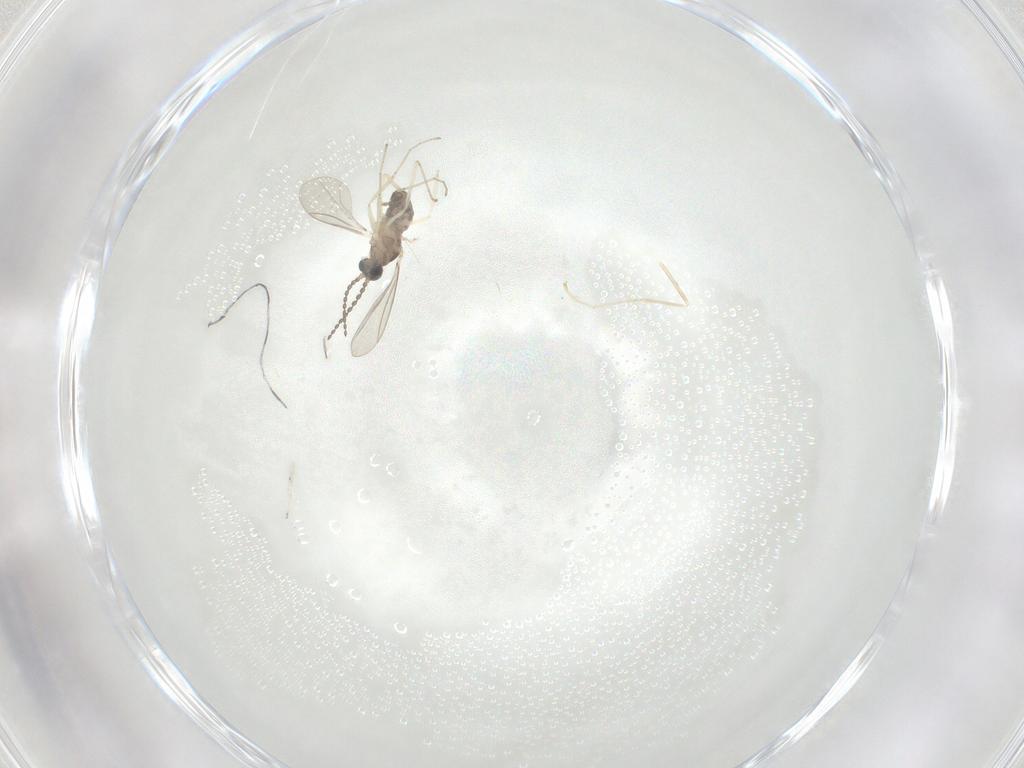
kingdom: Animalia
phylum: Arthropoda
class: Insecta
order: Diptera
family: Cecidomyiidae
